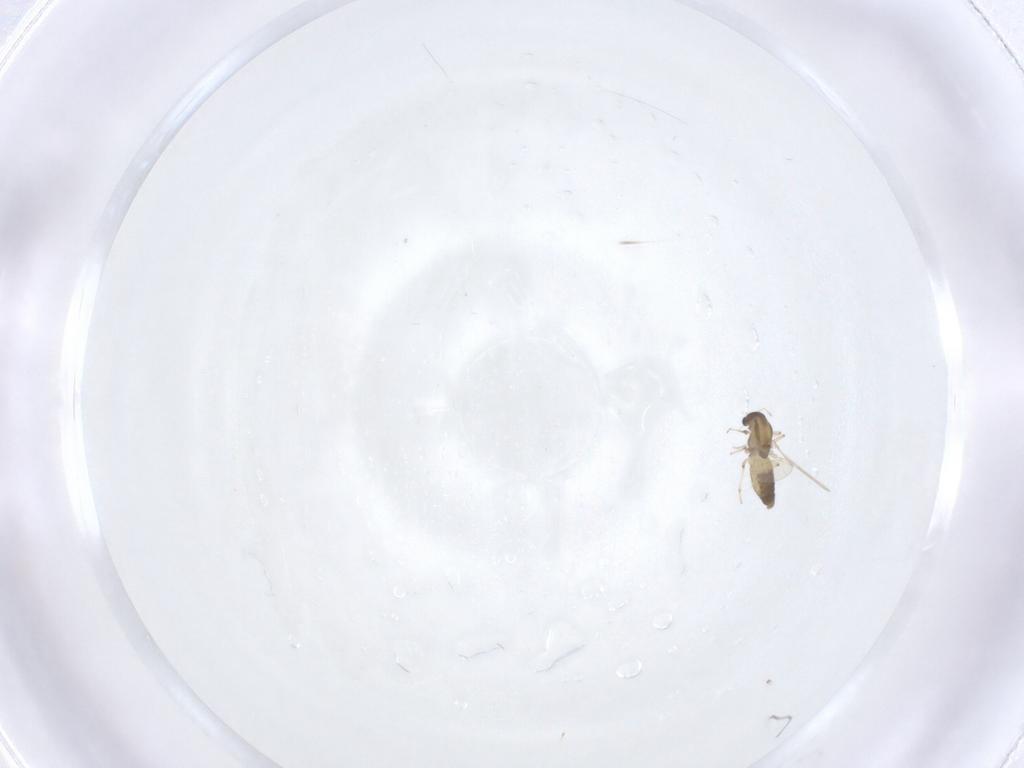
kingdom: Animalia
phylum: Arthropoda
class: Insecta
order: Diptera
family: Chironomidae
